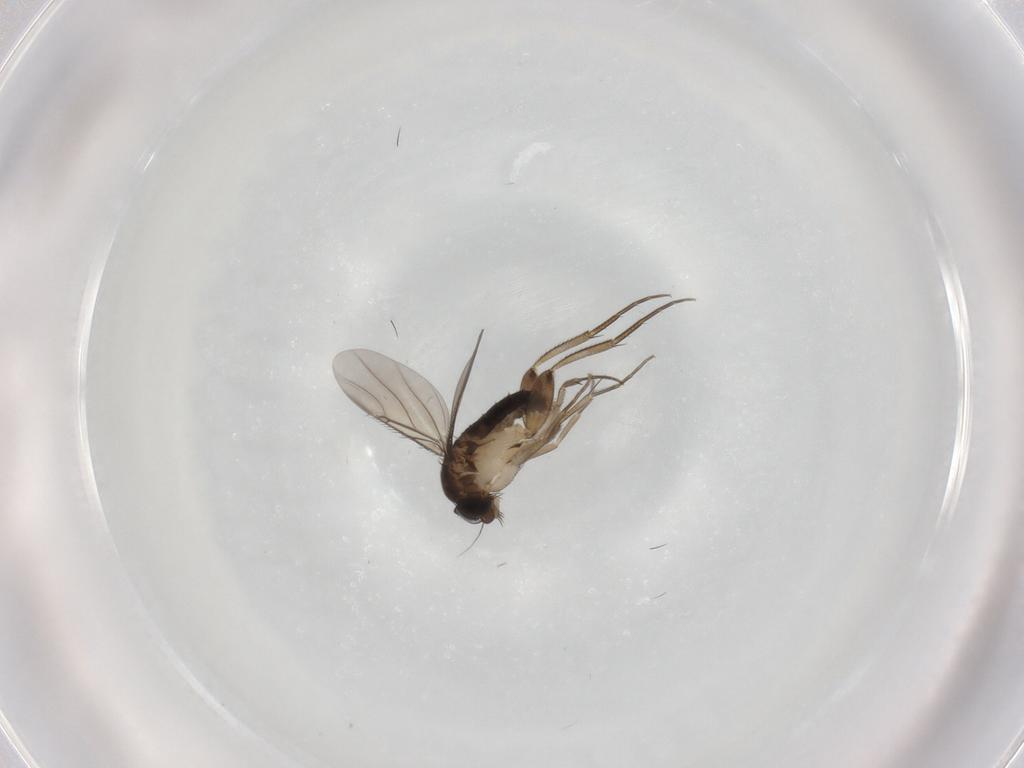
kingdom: Animalia
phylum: Arthropoda
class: Insecta
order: Diptera
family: Phoridae
